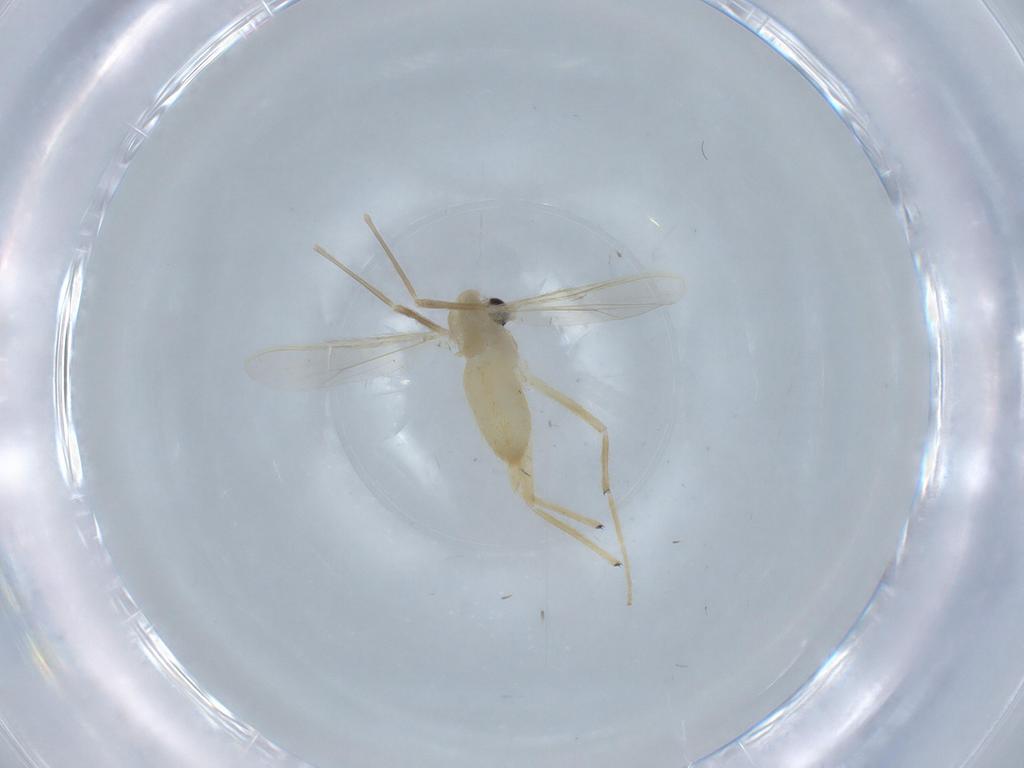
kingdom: Animalia
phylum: Arthropoda
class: Insecta
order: Diptera
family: Chironomidae
